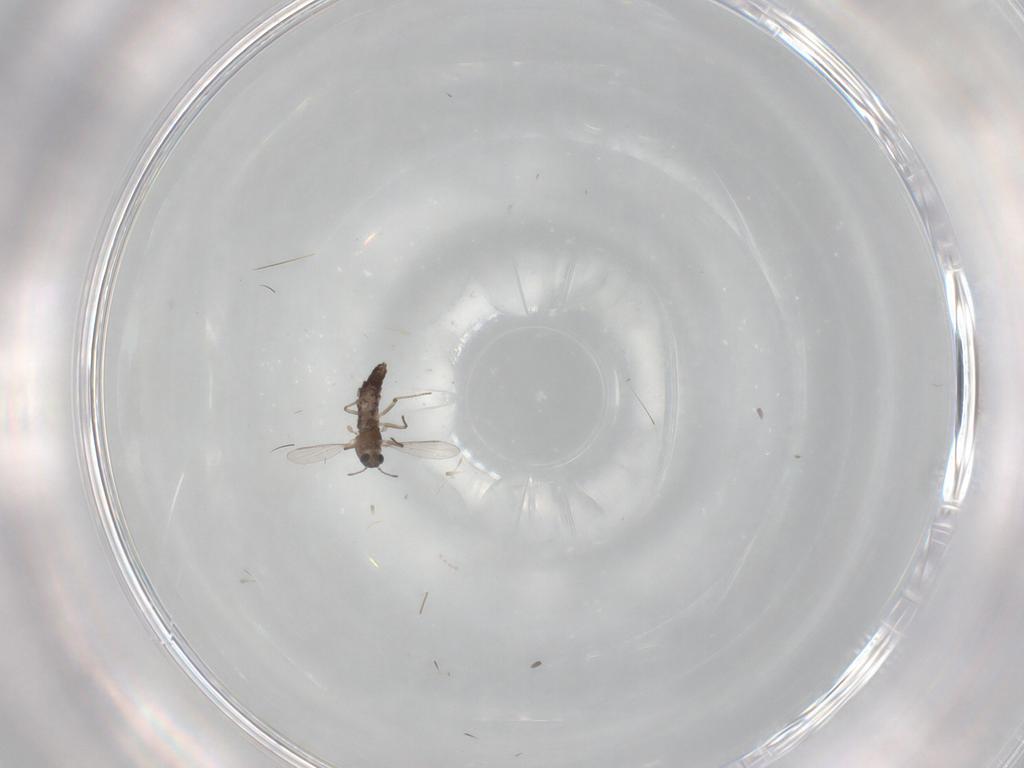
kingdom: Animalia
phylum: Arthropoda
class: Insecta
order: Diptera
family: Chironomidae
